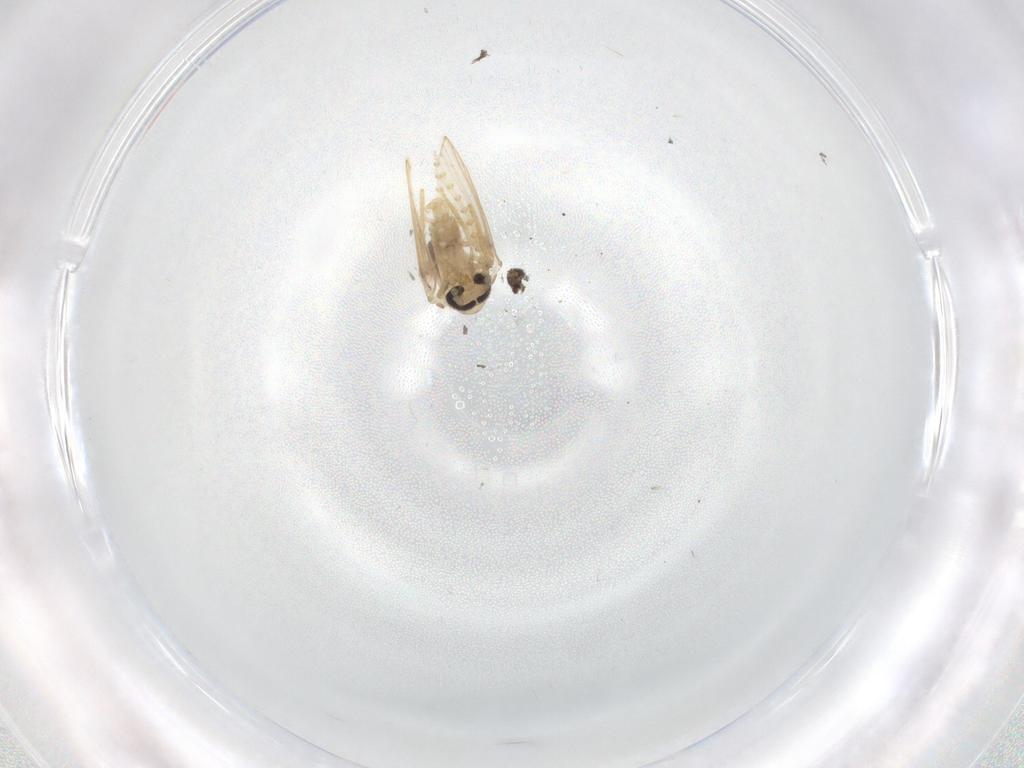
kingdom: Animalia
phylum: Arthropoda
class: Insecta
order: Diptera
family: Psychodidae
